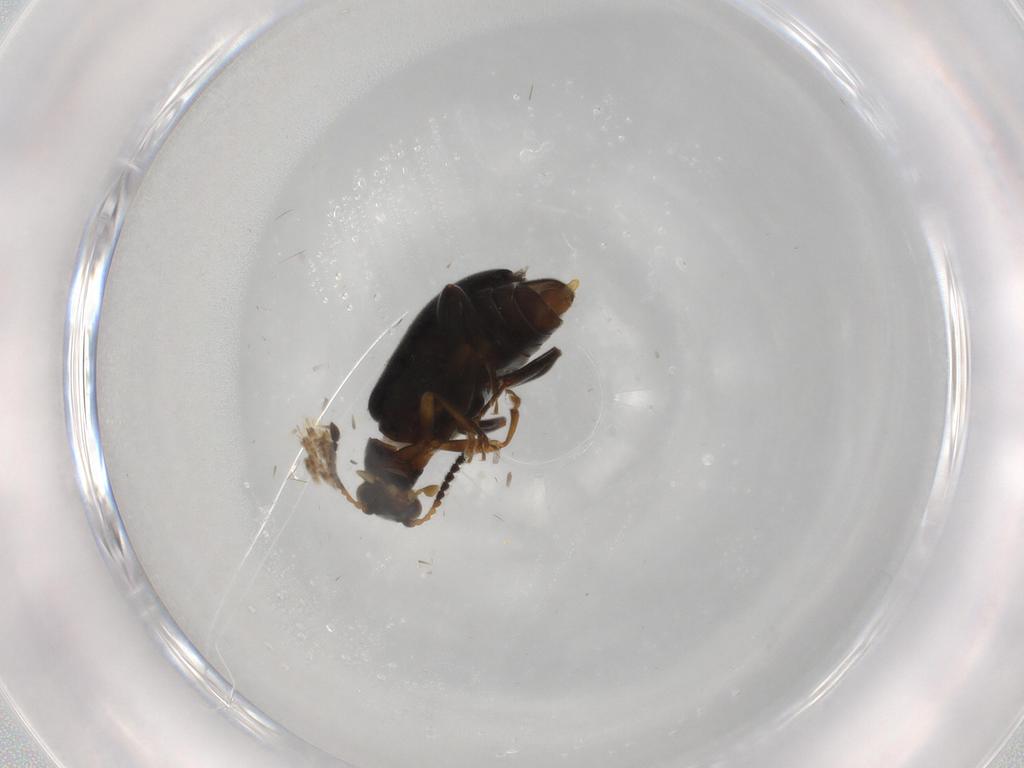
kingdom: Animalia
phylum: Arthropoda
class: Insecta
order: Coleoptera
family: Aderidae
